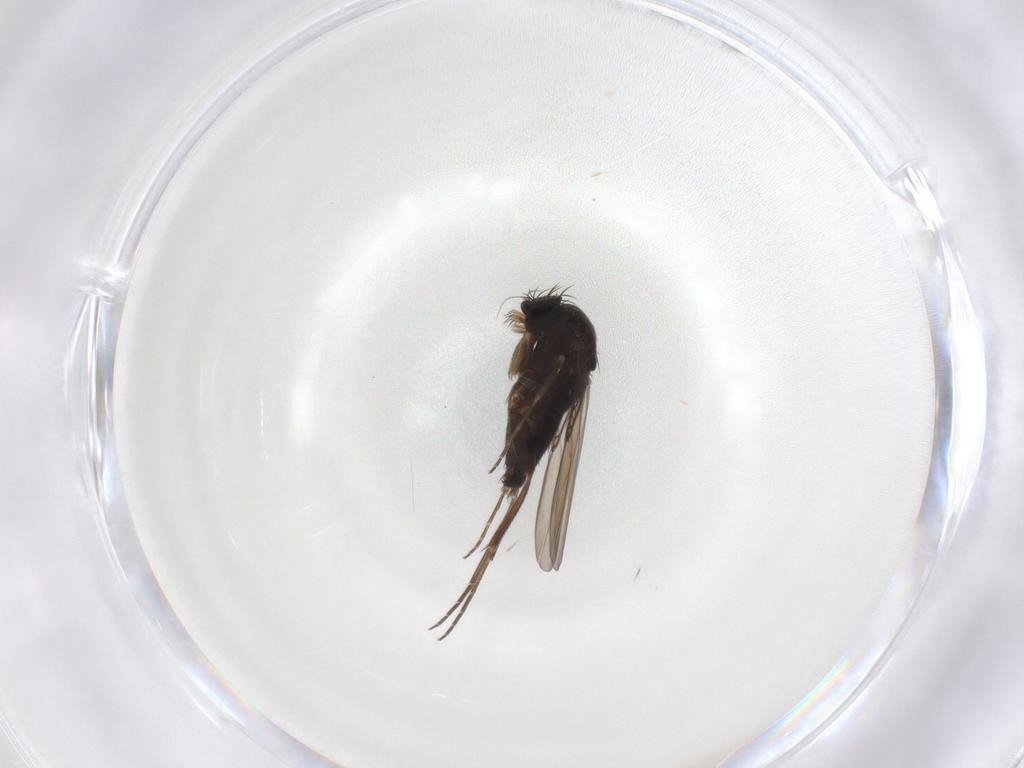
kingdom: Animalia
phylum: Arthropoda
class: Insecta
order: Diptera
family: Phoridae
